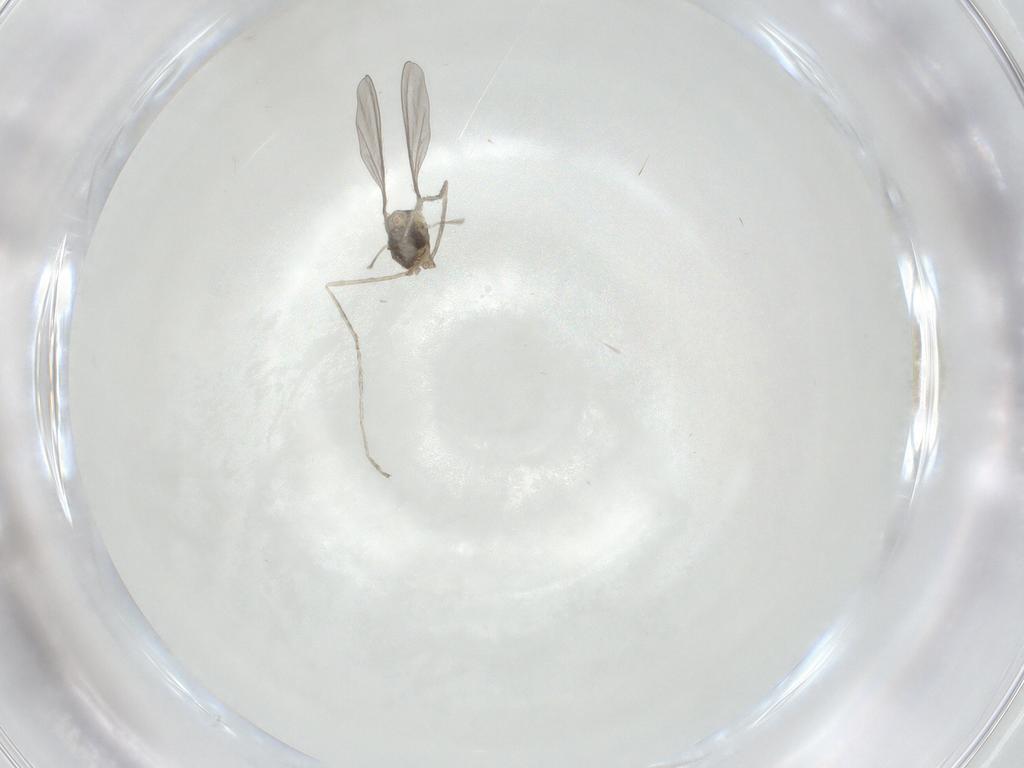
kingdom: Animalia
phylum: Arthropoda
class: Insecta
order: Diptera
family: Cecidomyiidae
